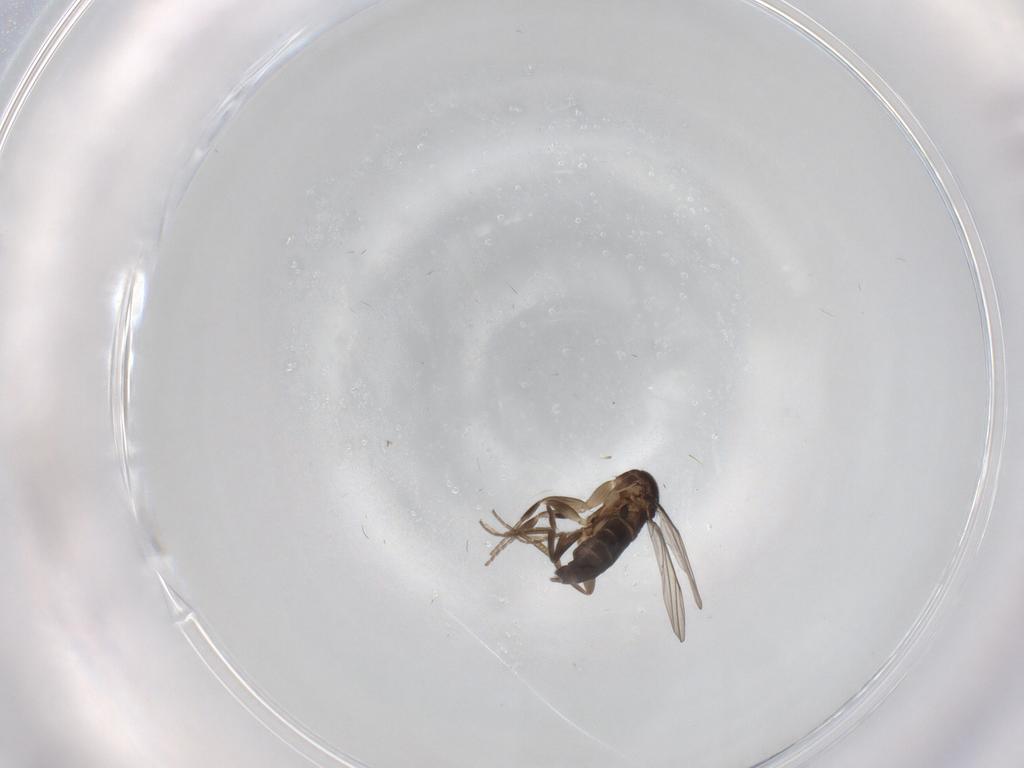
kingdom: Animalia
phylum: Arthropoda
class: Insecta
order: Diptera
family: Phoridae
